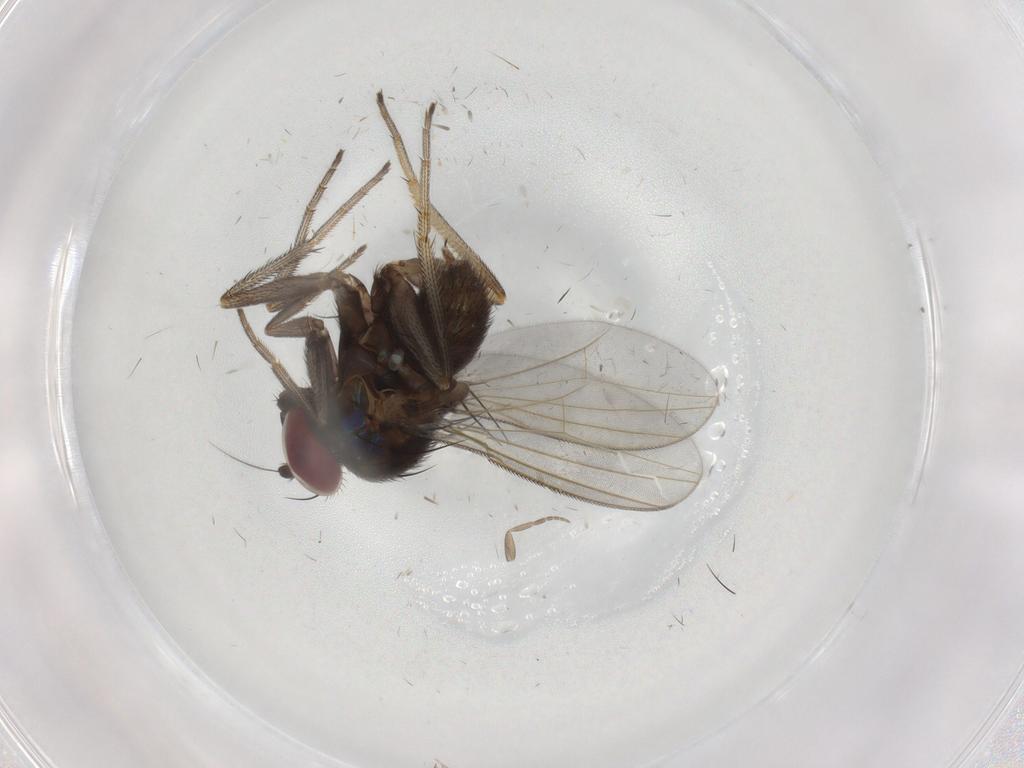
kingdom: Animalia
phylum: Arthropoda
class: Insecta
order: Diptera
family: Dolichopodidae
